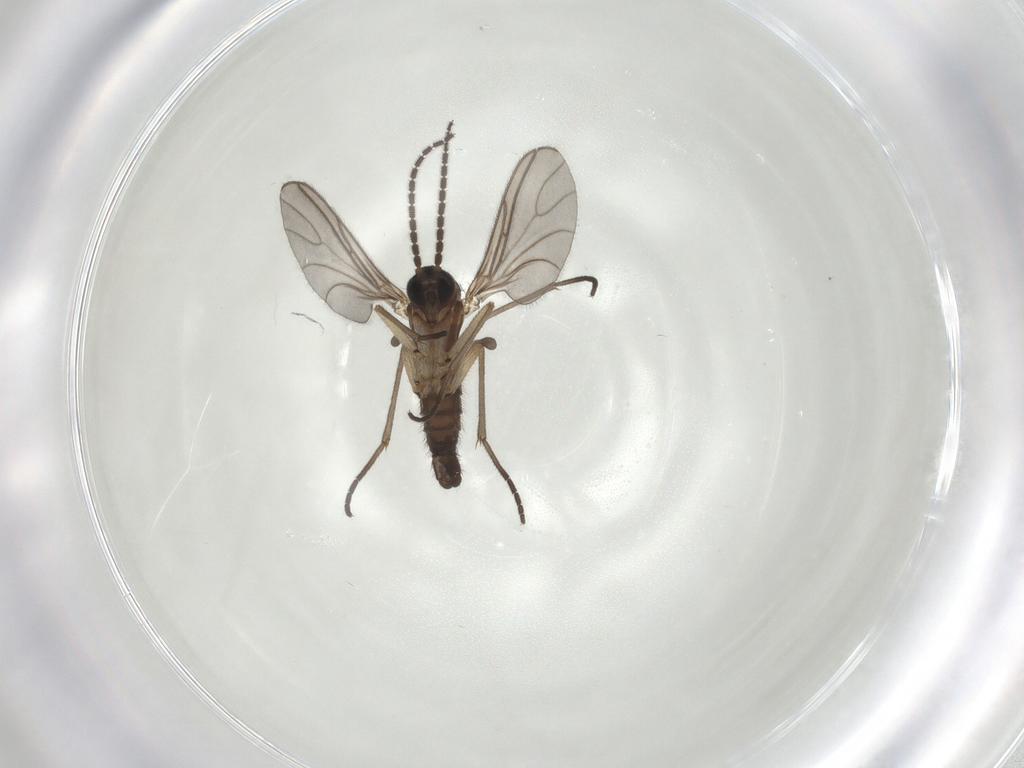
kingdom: Animalia
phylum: Arthropoda
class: Insecta
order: Diptera
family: Sciaridae
